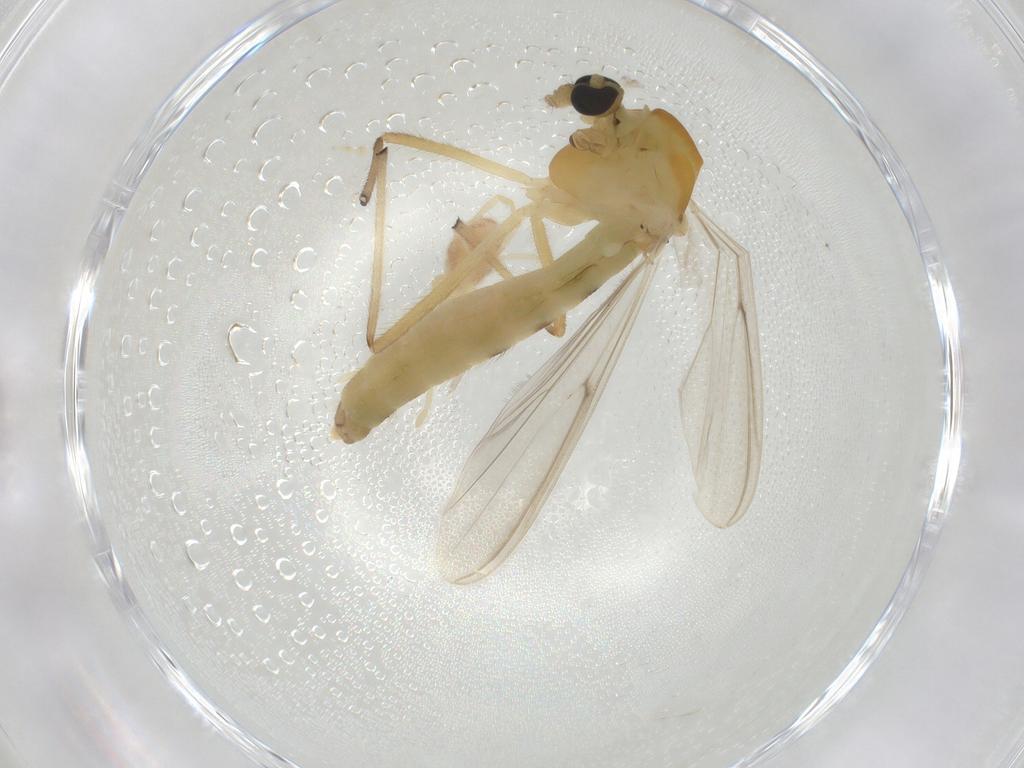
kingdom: Animalia
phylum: Arthropoda
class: Insecta
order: Diptera
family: Chironomidae
